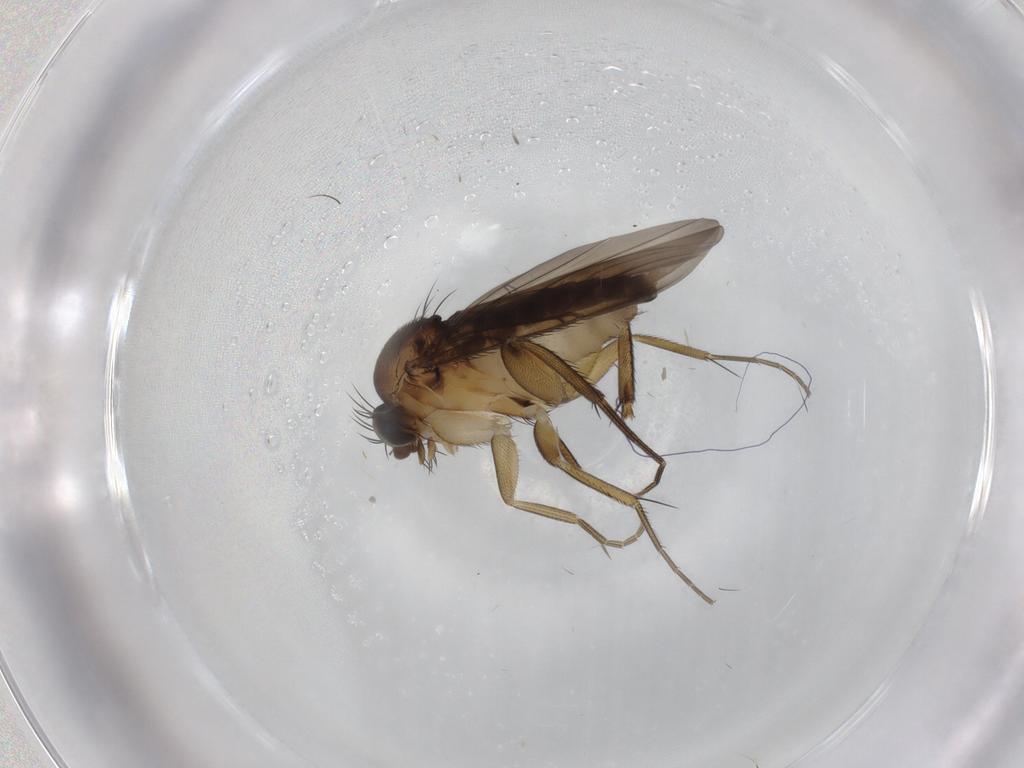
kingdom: Animalia
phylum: Arthropoda
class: Insecta
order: Diptera
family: Phoridae
